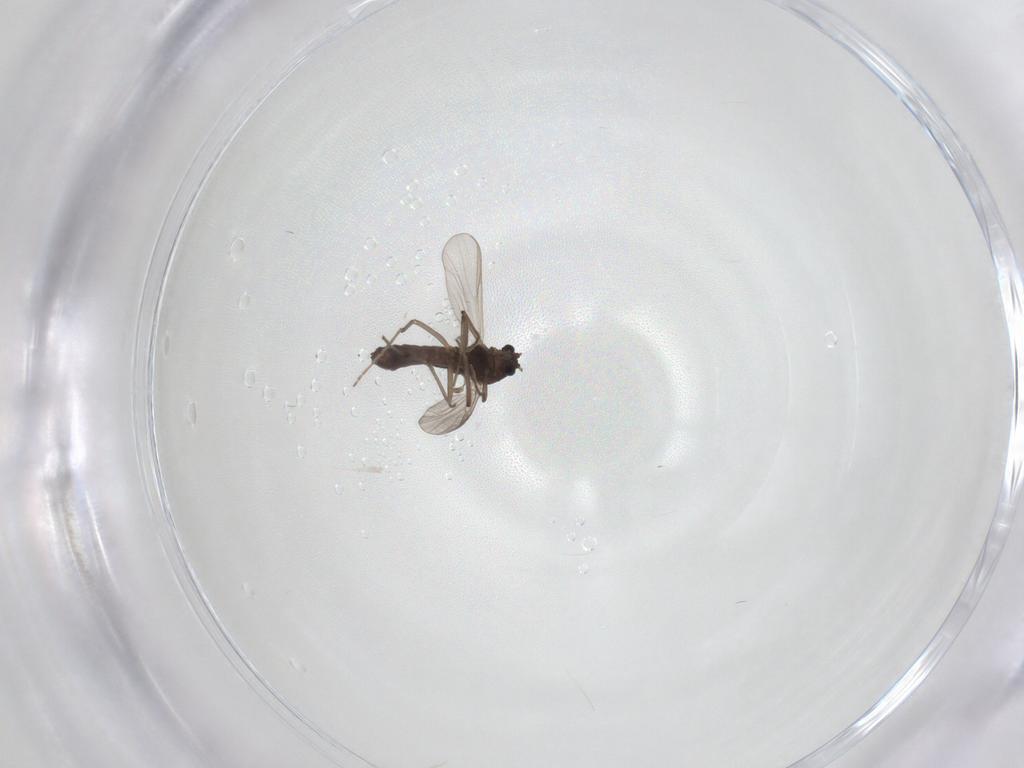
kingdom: Animalia
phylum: Arthropoda
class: Insecta
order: Diptera
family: Chironomidae
